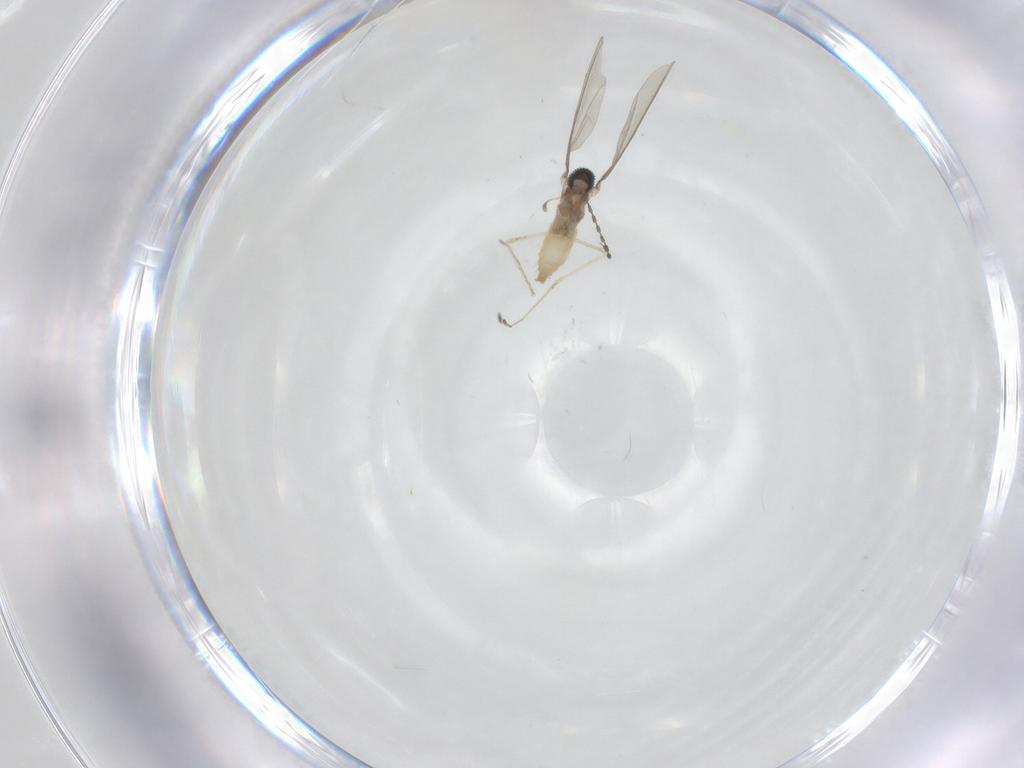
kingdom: Animalia
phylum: Arthropoda
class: Insecta
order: Diptera
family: Cecidomyiidae
